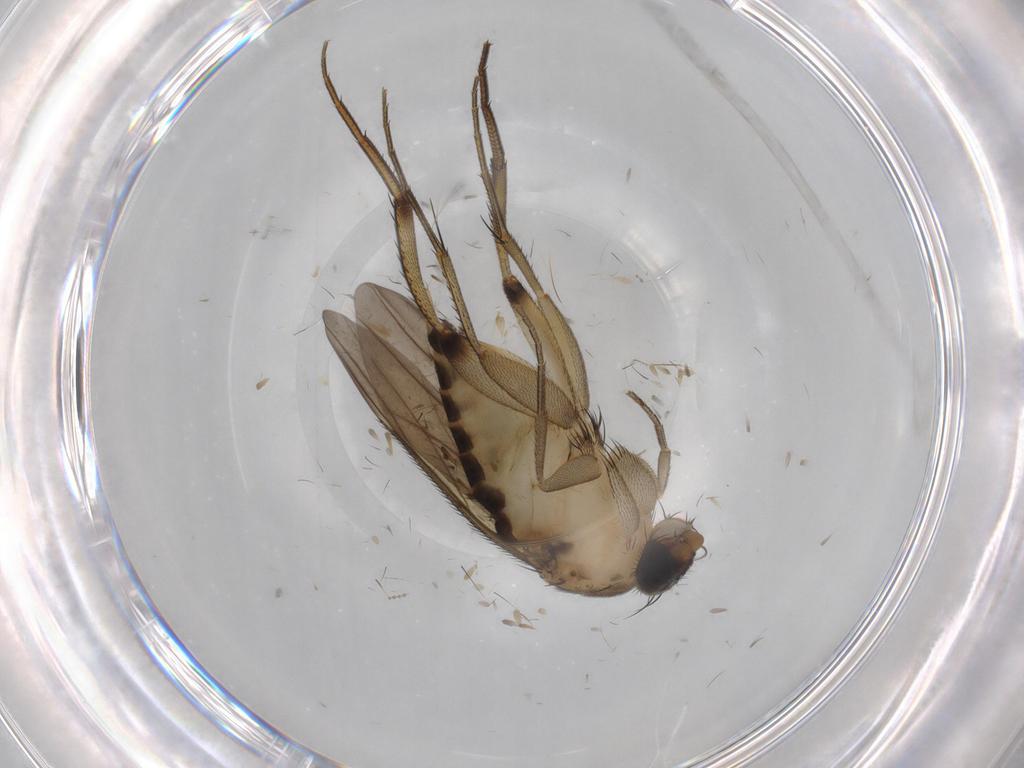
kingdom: Animalia
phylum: Arthropoda
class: Insecta
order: Diptera
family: Phoridae
